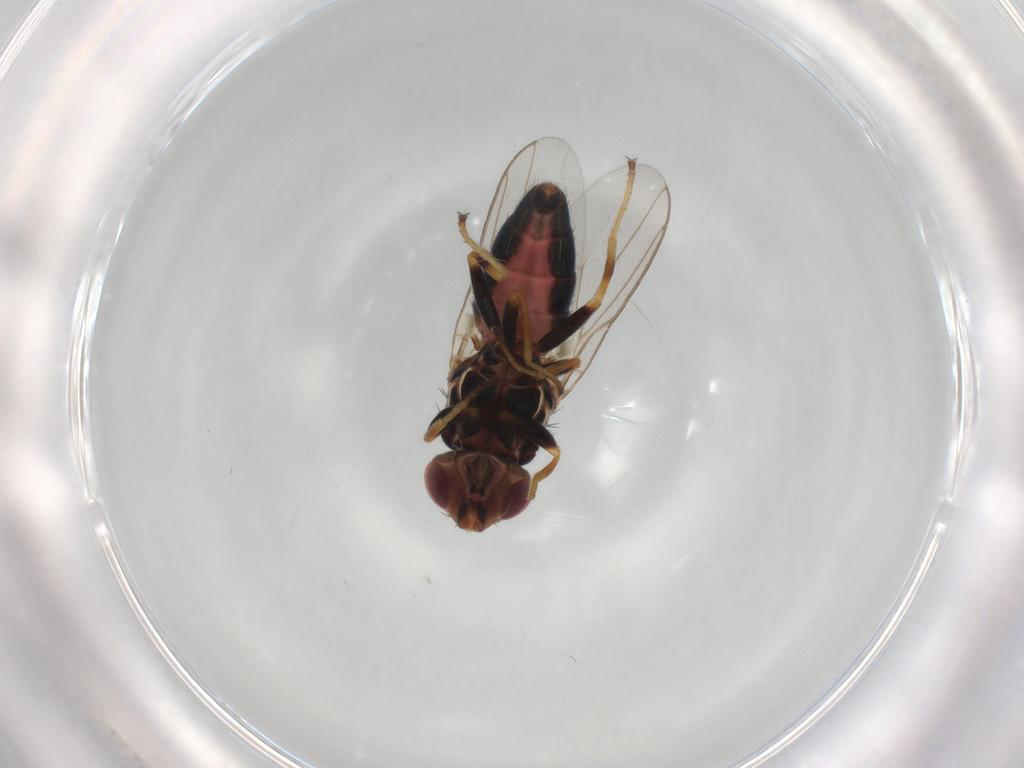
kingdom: Animalia
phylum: Arthropoda
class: Insecta
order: Diptera
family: Chloropidae
